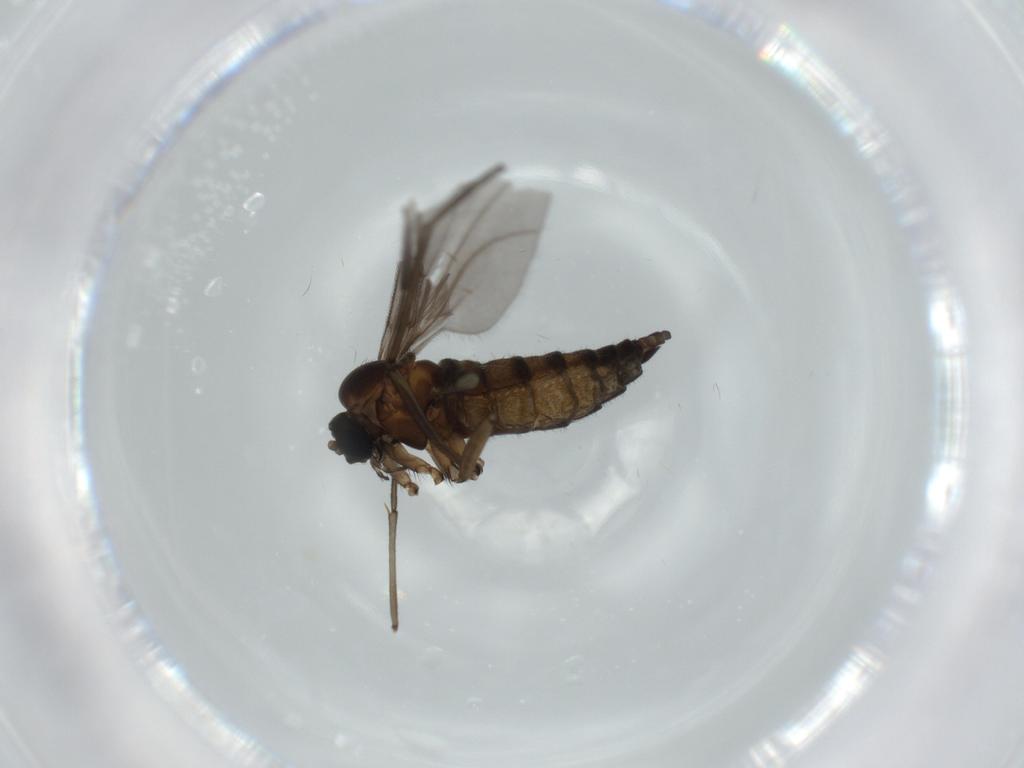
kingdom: Animalia
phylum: Arthropoda
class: Insecta
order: Diptera
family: Sciaridae
